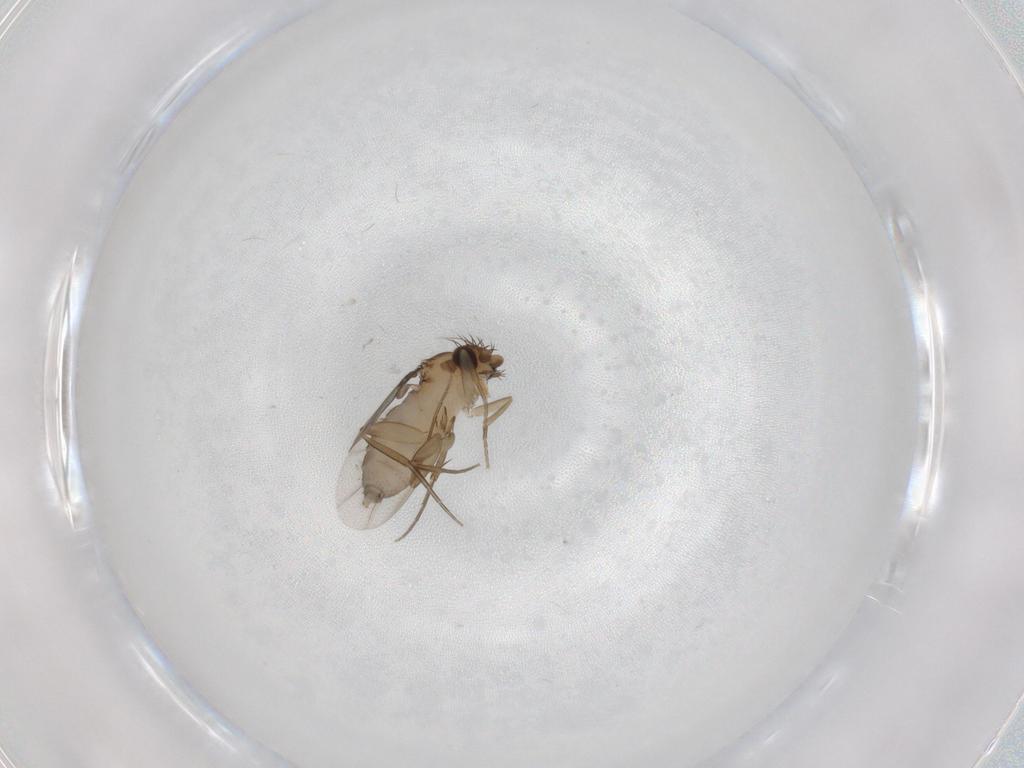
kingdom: Animalia
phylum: Arthropoda
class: Insecta
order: Diptera
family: Phoridae
